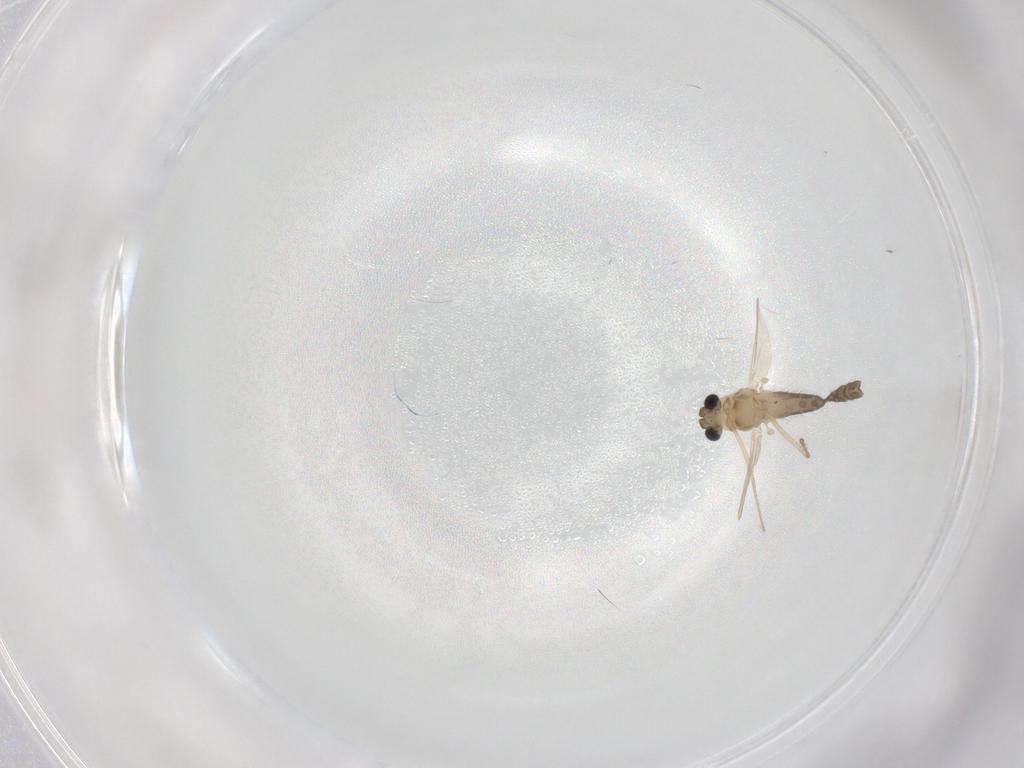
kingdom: Animalia
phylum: Arthropoda
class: Insecta
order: Diptera
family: Chironomidae
